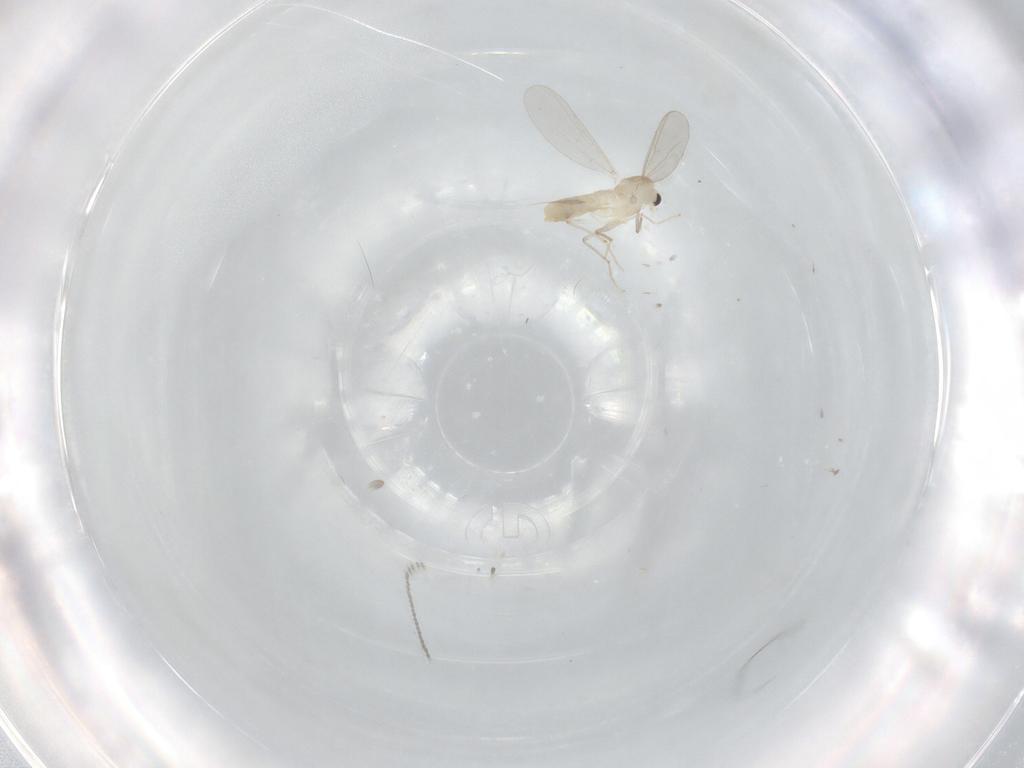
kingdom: Animalia
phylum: Arthropoda
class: Insecta
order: Diptera
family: Chironomidae
